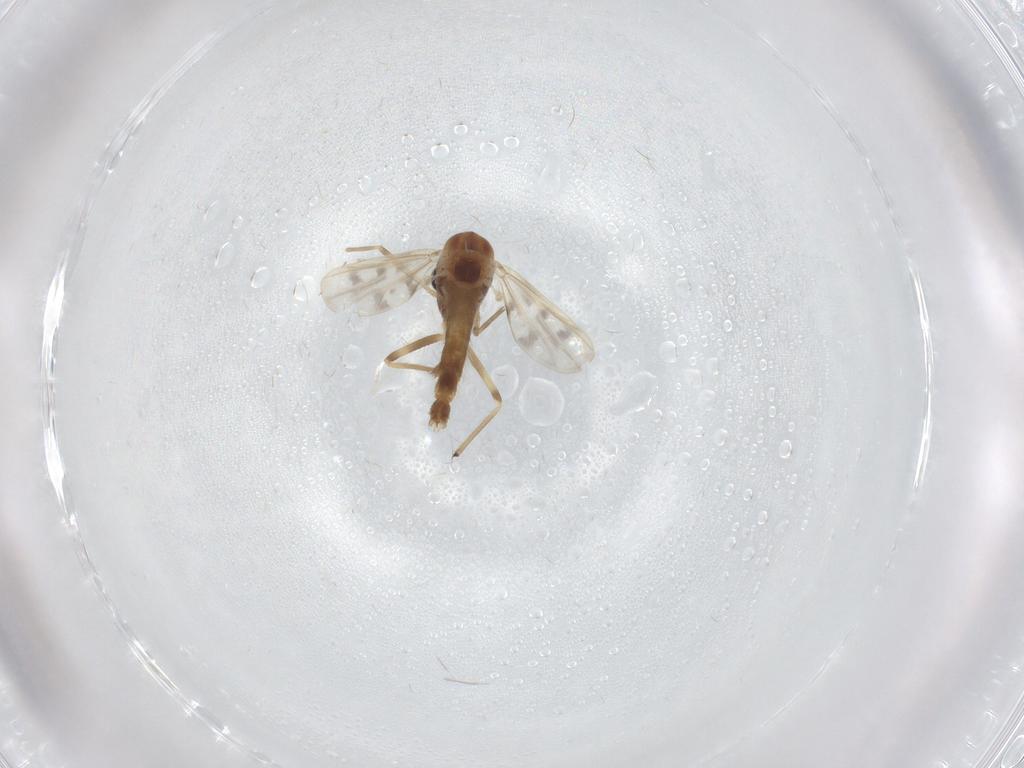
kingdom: Animalia
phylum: Arthropoda
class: Insecta
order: Diptera
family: Chironomidae
